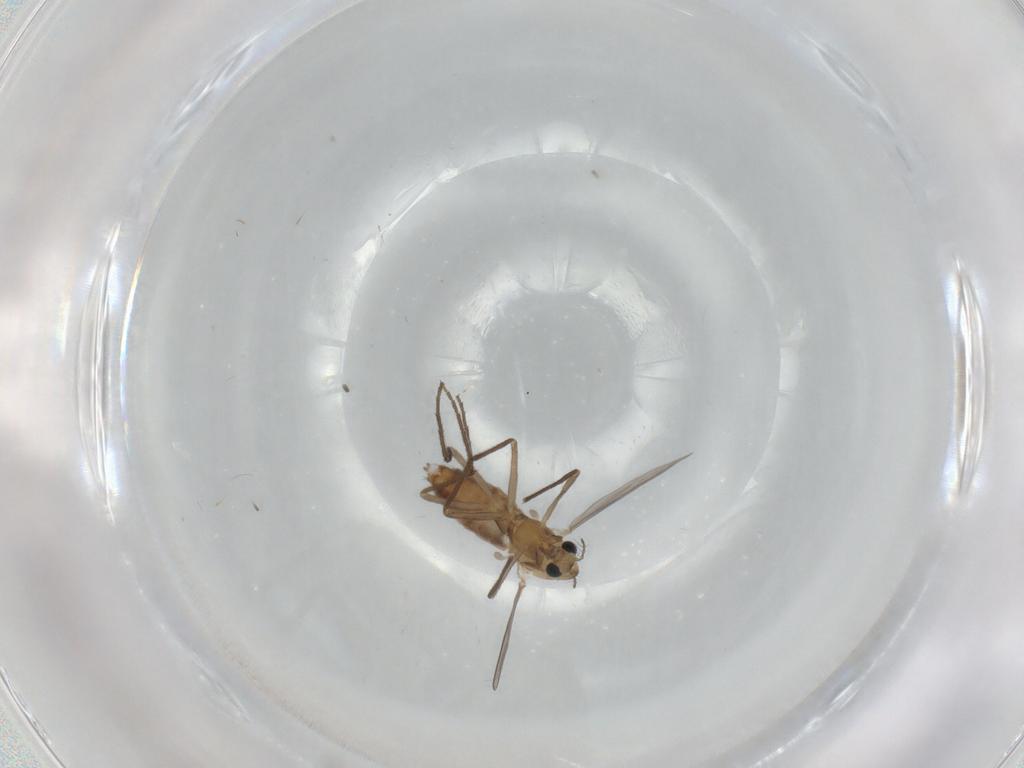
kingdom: Animalia
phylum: Arthropoda
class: Insecta
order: Diptera
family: Chironomidae
